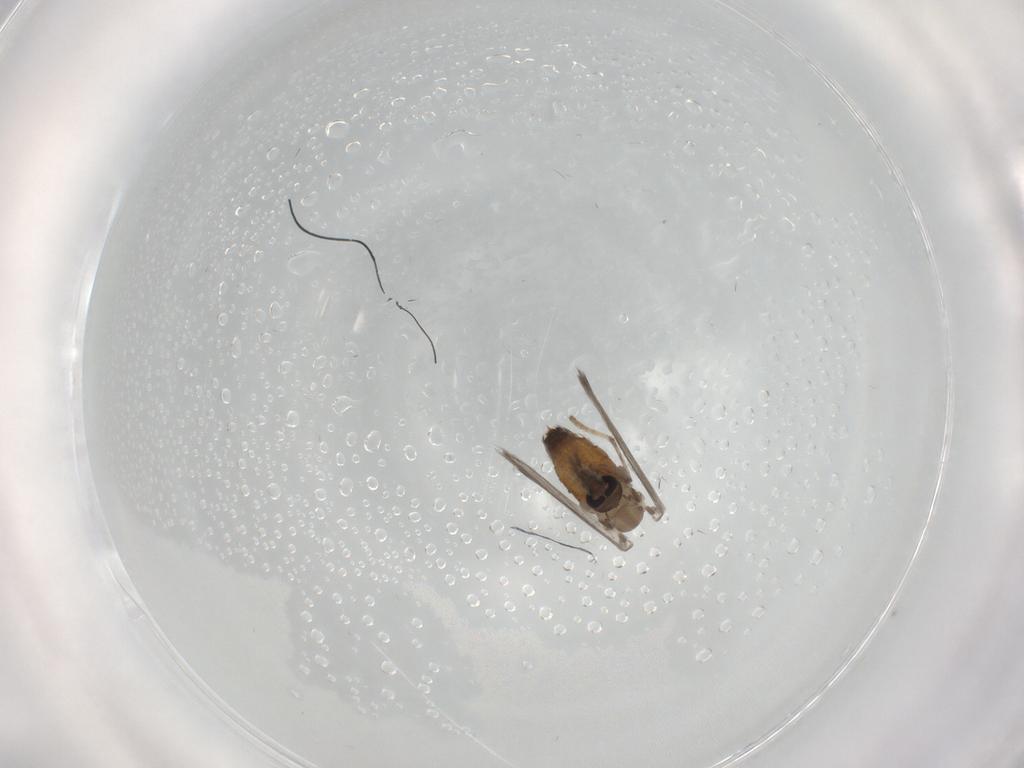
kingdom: Animalia
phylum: Arthropoda
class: Insecta
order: Diptera
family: Psychodidae
